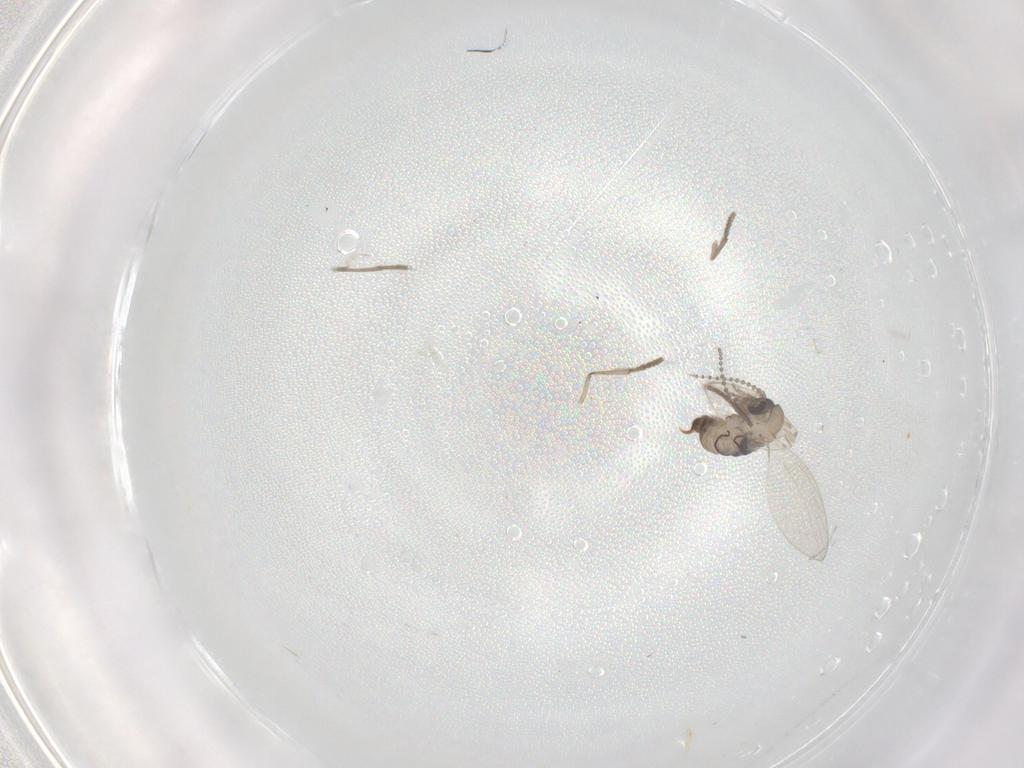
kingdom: Animalia
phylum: Arthropoda
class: Insecta
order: Diptera
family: Psychodidae
